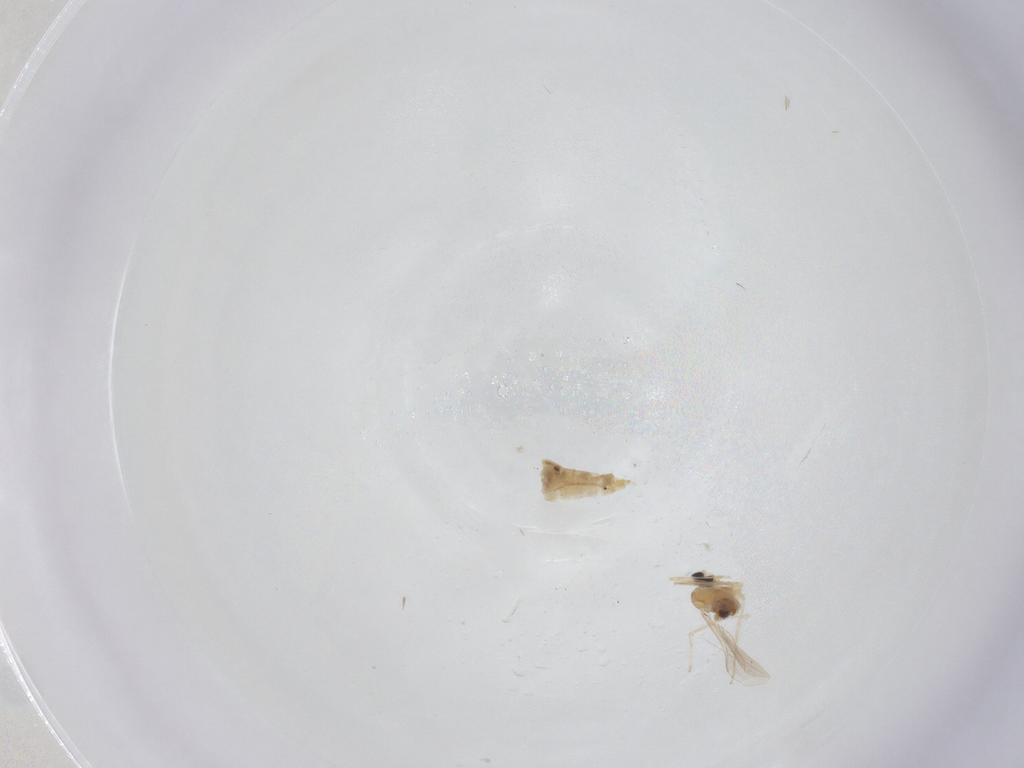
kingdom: Animalia
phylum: Arthropoda
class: Insecta
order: Diptera
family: Cecidomyiidae
